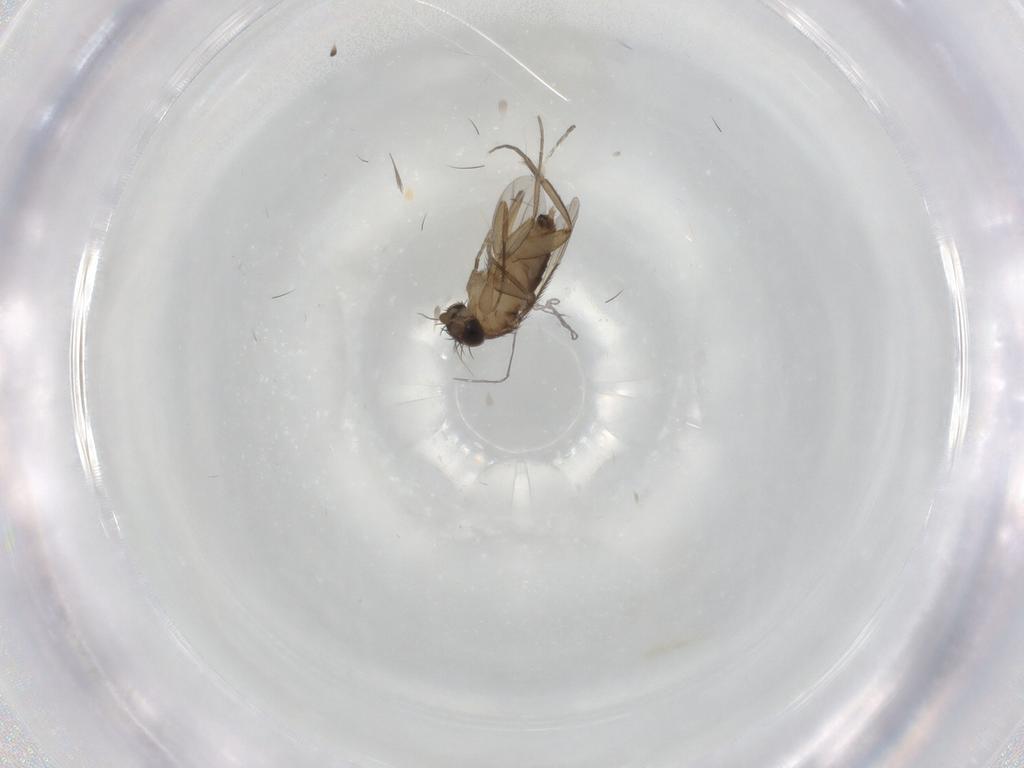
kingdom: Animalia
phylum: Arthropoda
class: Insecta
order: Diptera
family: Phoridae
